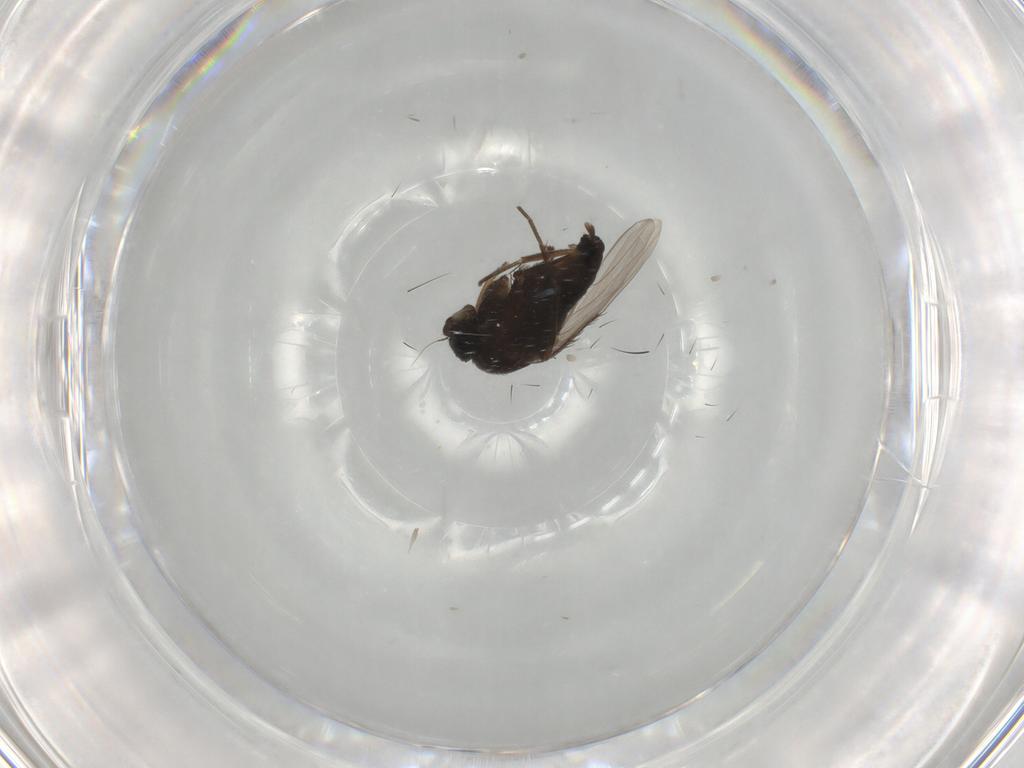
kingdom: Animalia
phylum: Arthropoda
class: Insecta
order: Diptera
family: Phoridae
